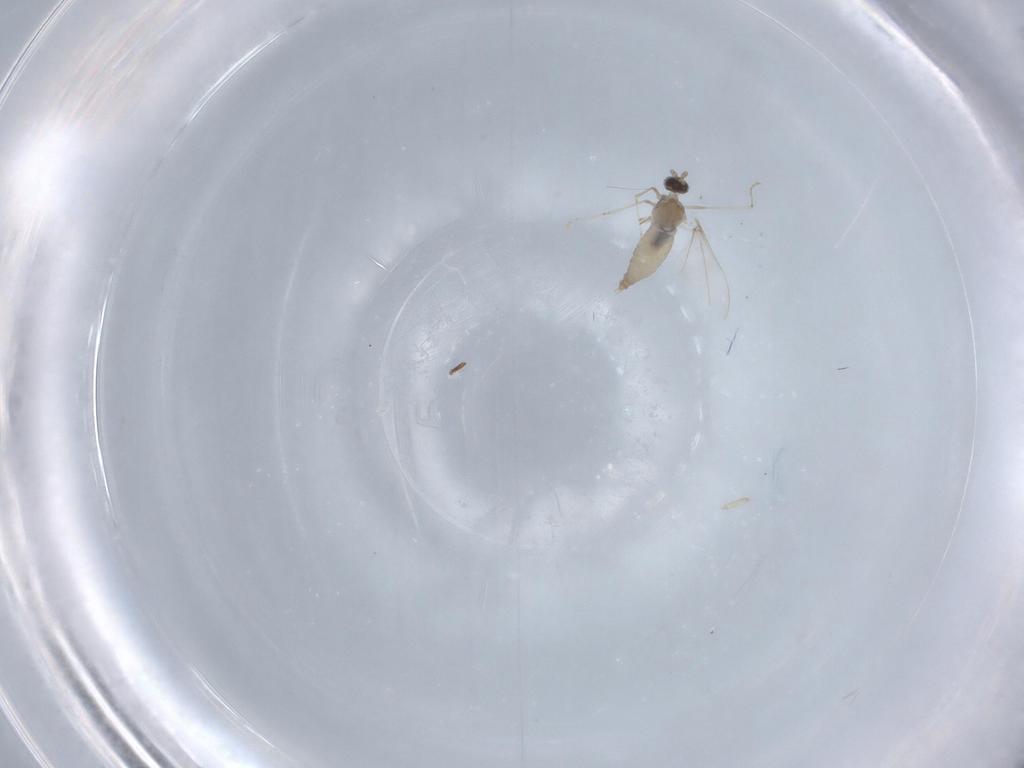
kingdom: Animalia
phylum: Arthropoda
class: Insecta
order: Diptera
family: Cecidomyiidae
